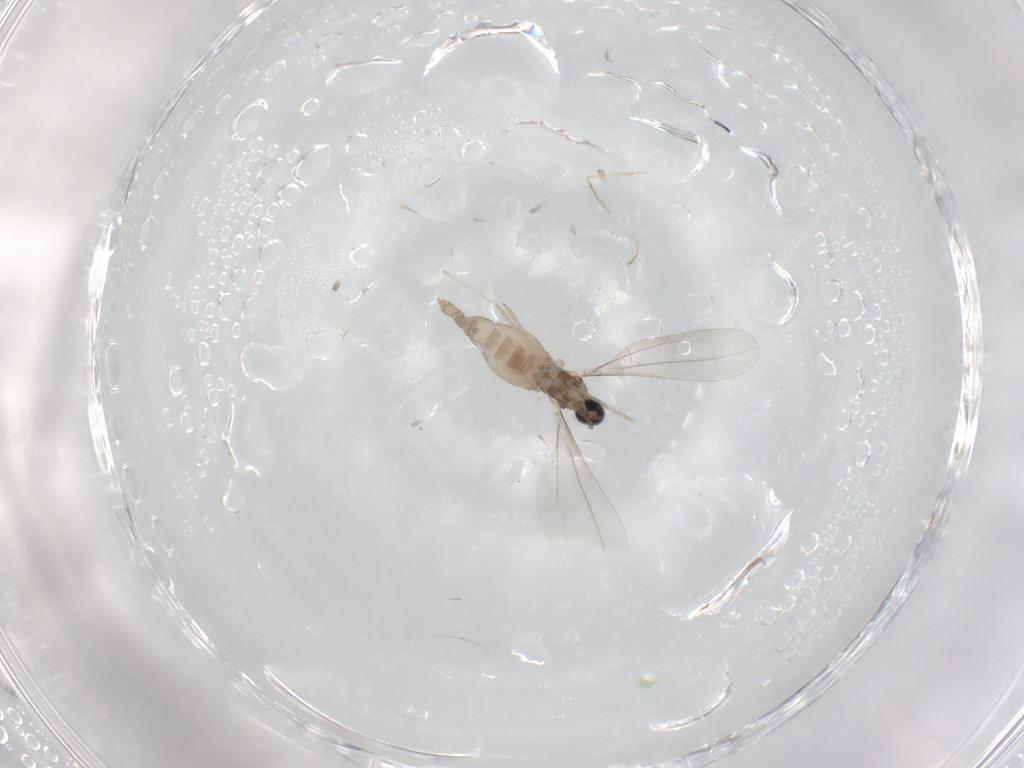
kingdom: Animalia
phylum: Arthropoda
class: Insecta
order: Diptera
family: Cecidomyiidae
